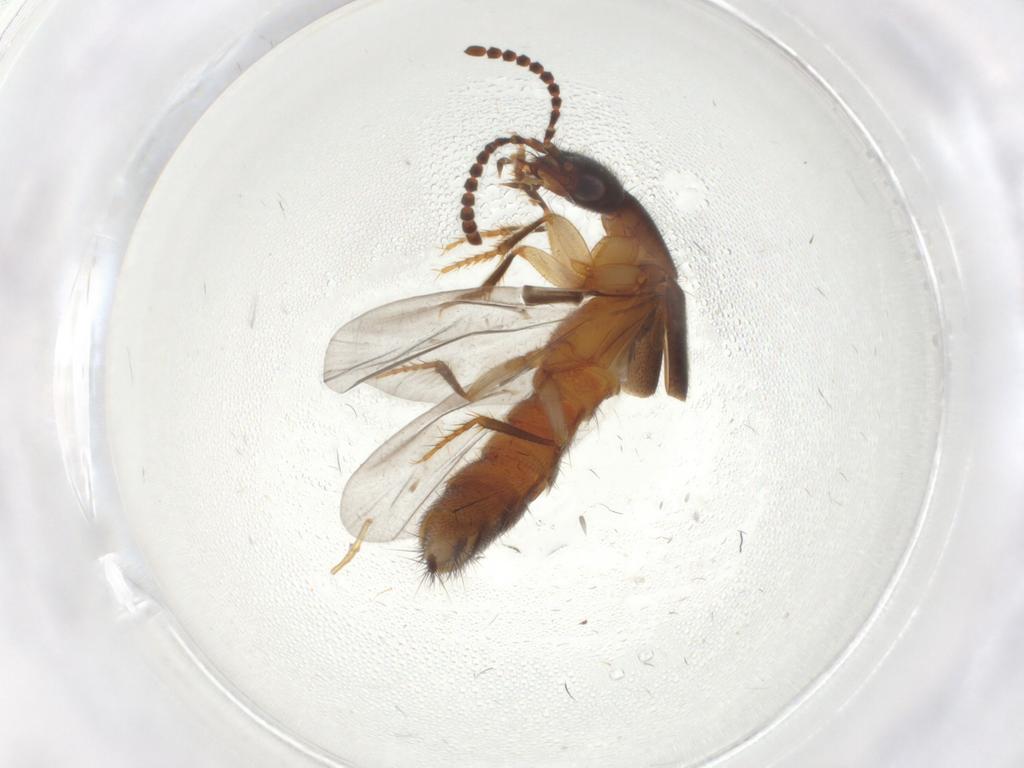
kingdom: Animalia
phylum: Arthropoda
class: Insecta
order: Coleoptera
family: Staphylinidae
